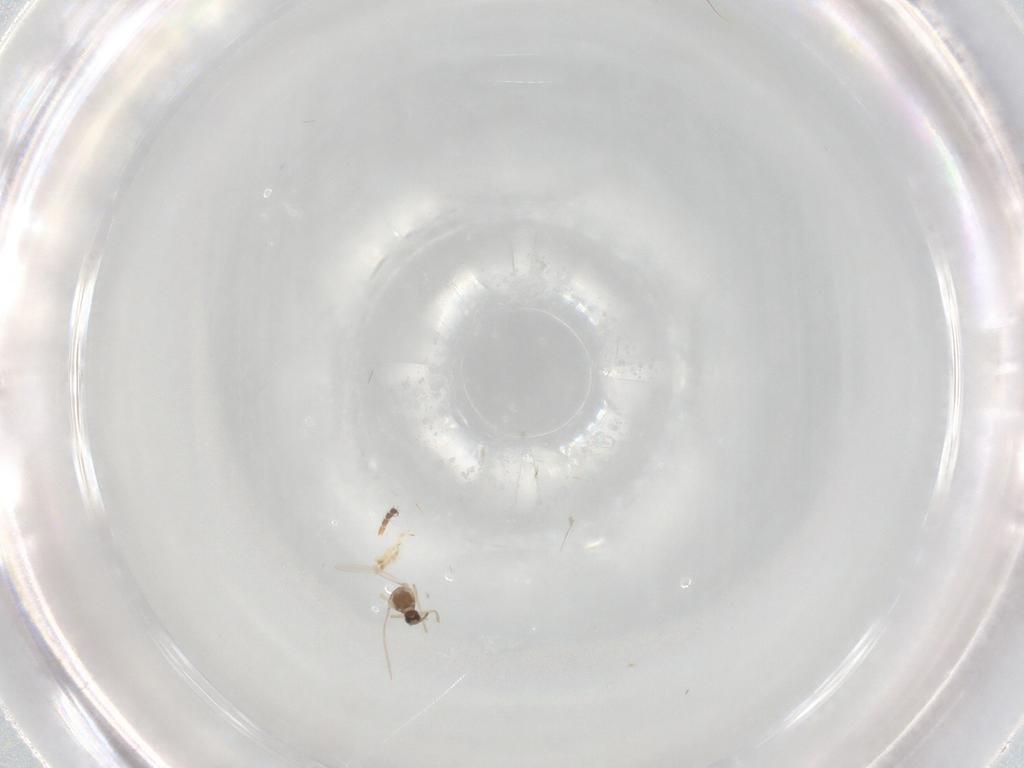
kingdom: Animalia
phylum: Arthropoda
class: Insecta
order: Diptera
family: Cecidomyiidae
